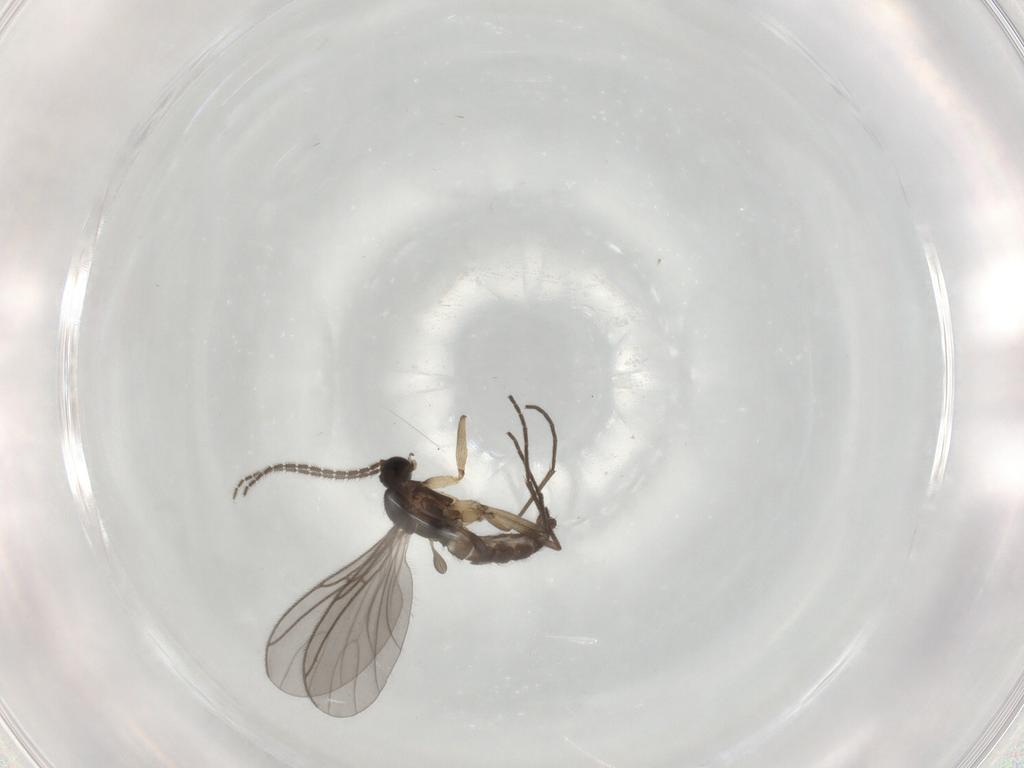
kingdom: Animalia
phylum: Arthropoda
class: Insecta
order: Diptera
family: Sciaridae
